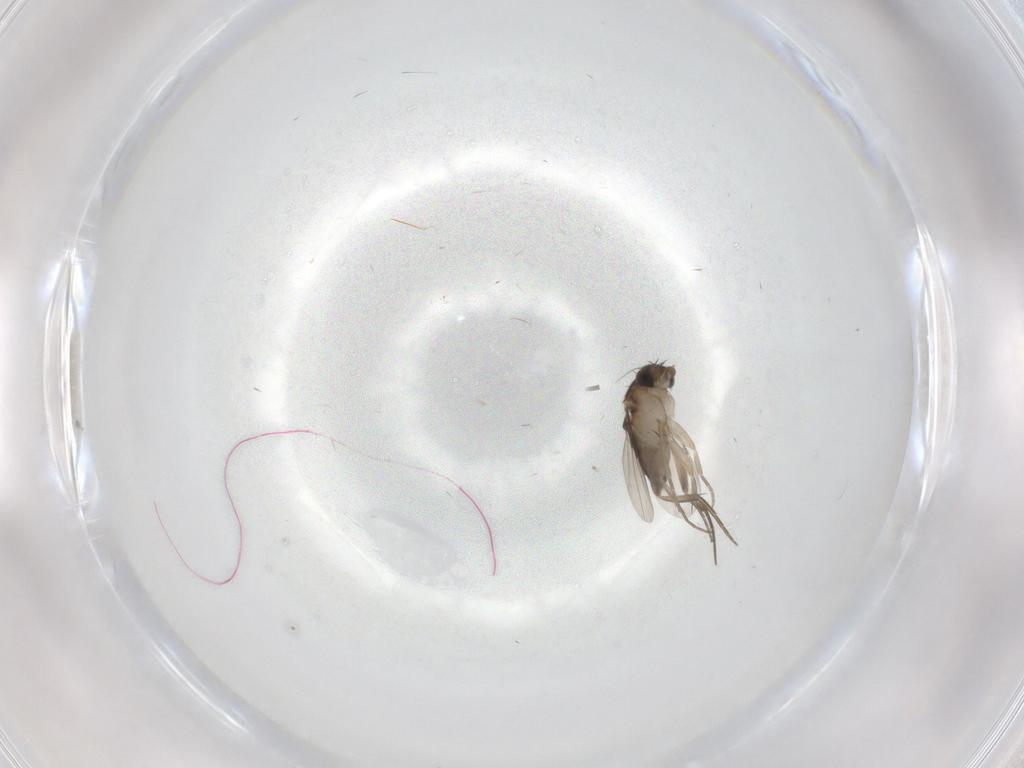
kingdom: Animalia
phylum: Arthropoda
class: Insecta
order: Diptera
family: Phoridae
